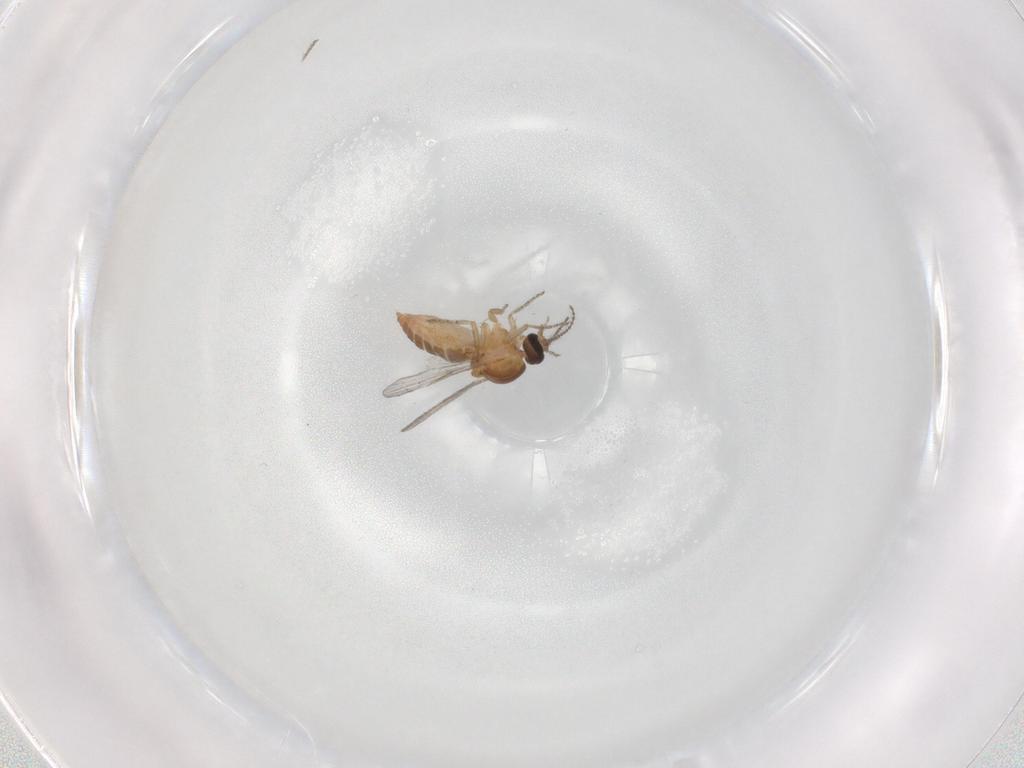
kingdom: Animalia
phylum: Arthropoda
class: Insecta
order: Diptera
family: Ceratopogonidae
